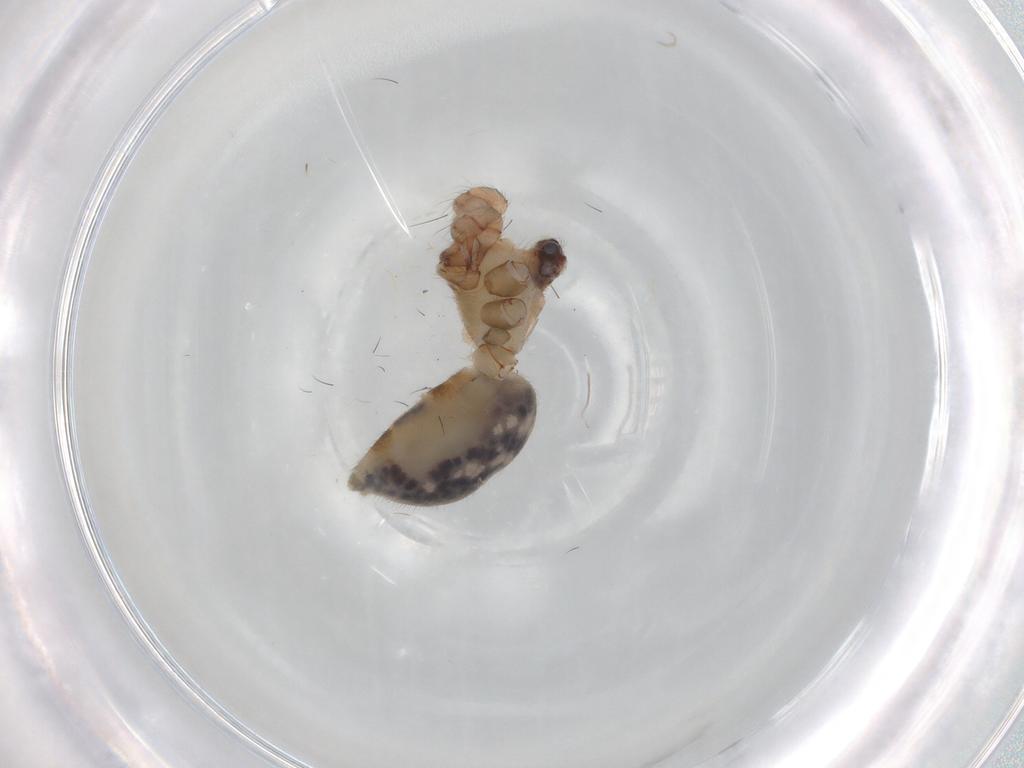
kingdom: Animalia
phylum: Arthropoda
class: Arachnida
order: Araneae
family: Pholcidae
